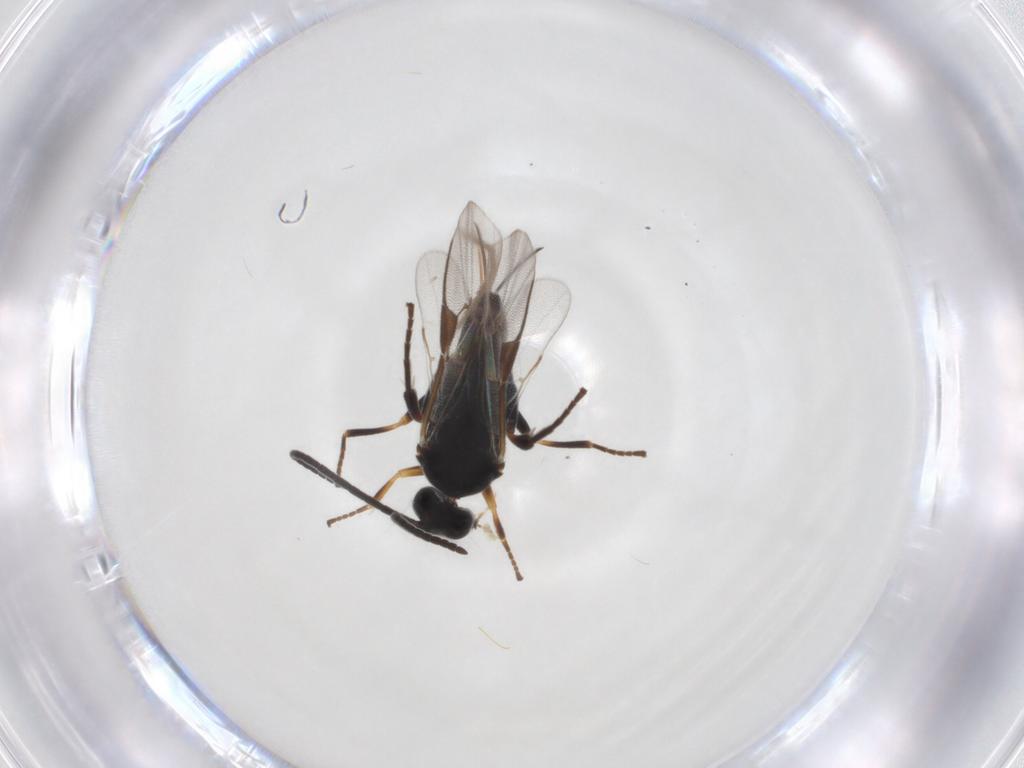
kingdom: Animalia
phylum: Arthropoda
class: Insecta
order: Hymenoptera
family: Braconidae
